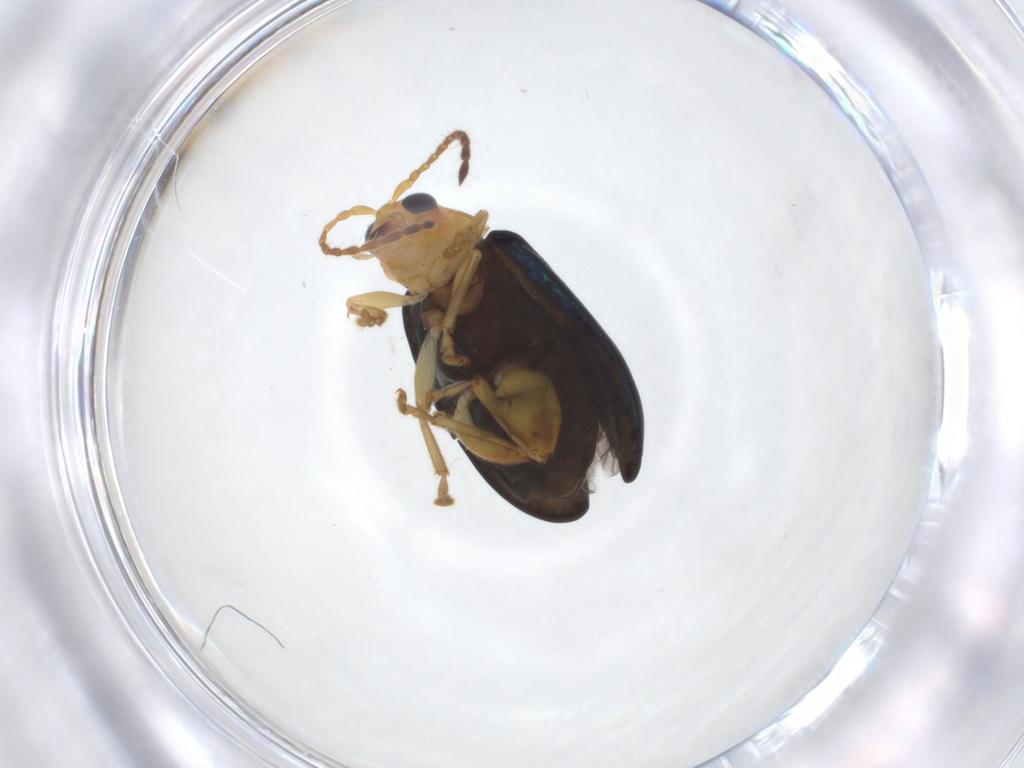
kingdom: Animalia
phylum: Arthropoda
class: Insecta
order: Coleoptera
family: Chrysomelidae
